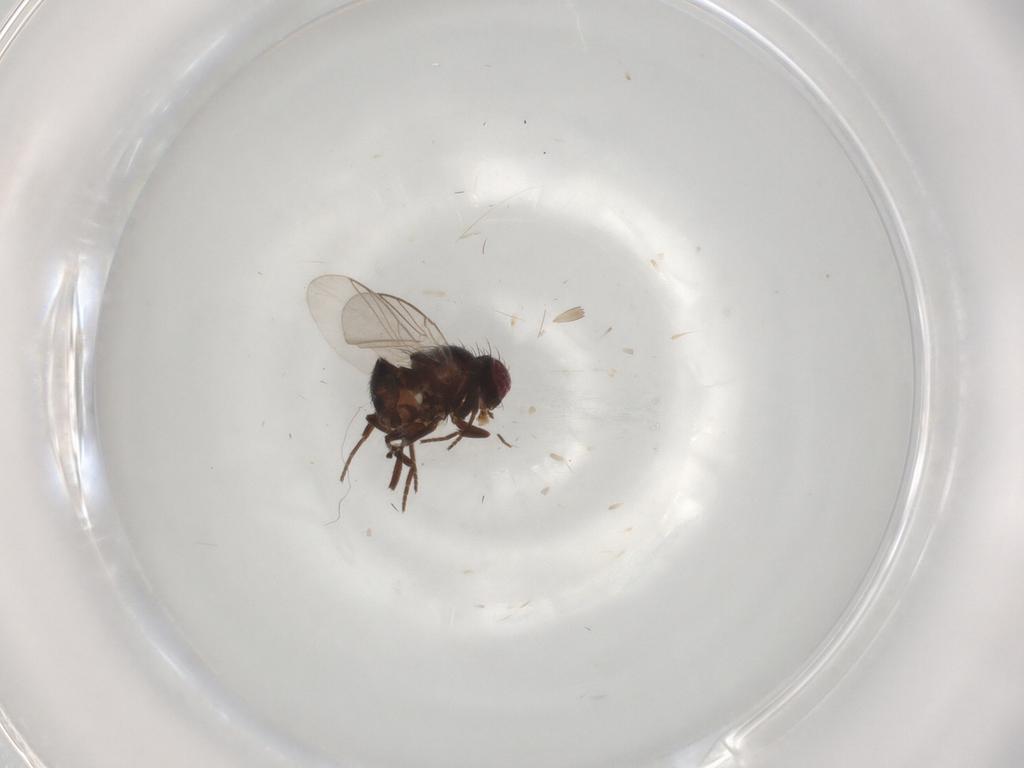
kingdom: Animalia
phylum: Arthropoda
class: Insecta
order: Diptera
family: Muscidae
